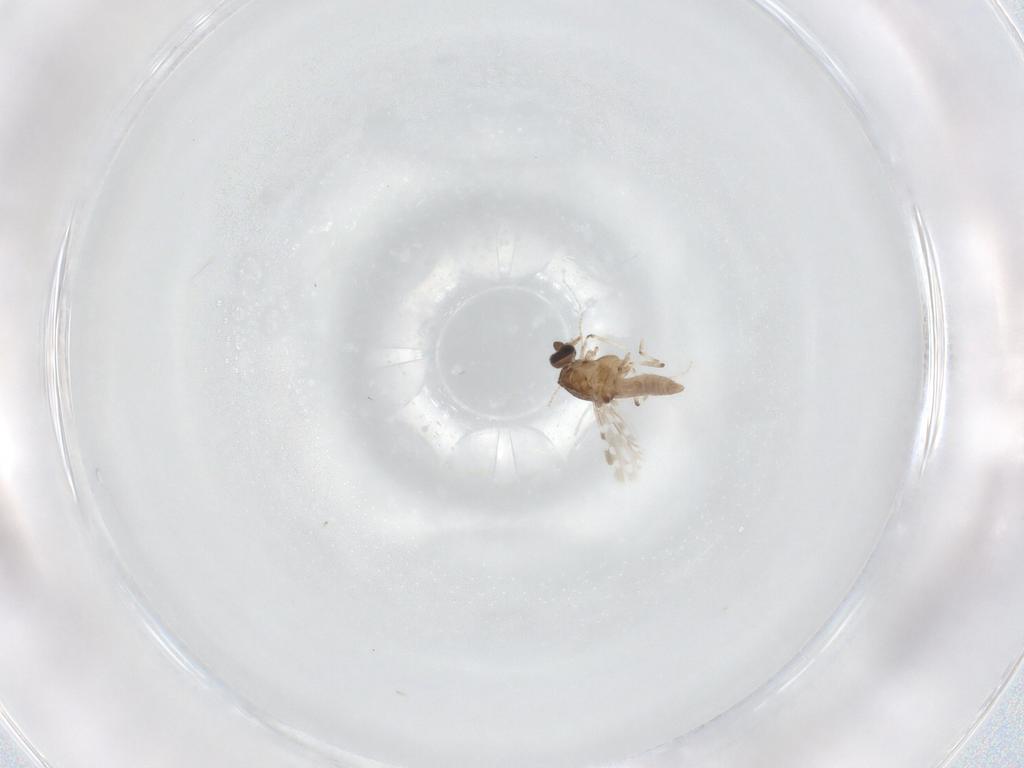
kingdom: Animalia
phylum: Arthropoda
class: Insecta
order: Diptera
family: Ceratopogonidae
